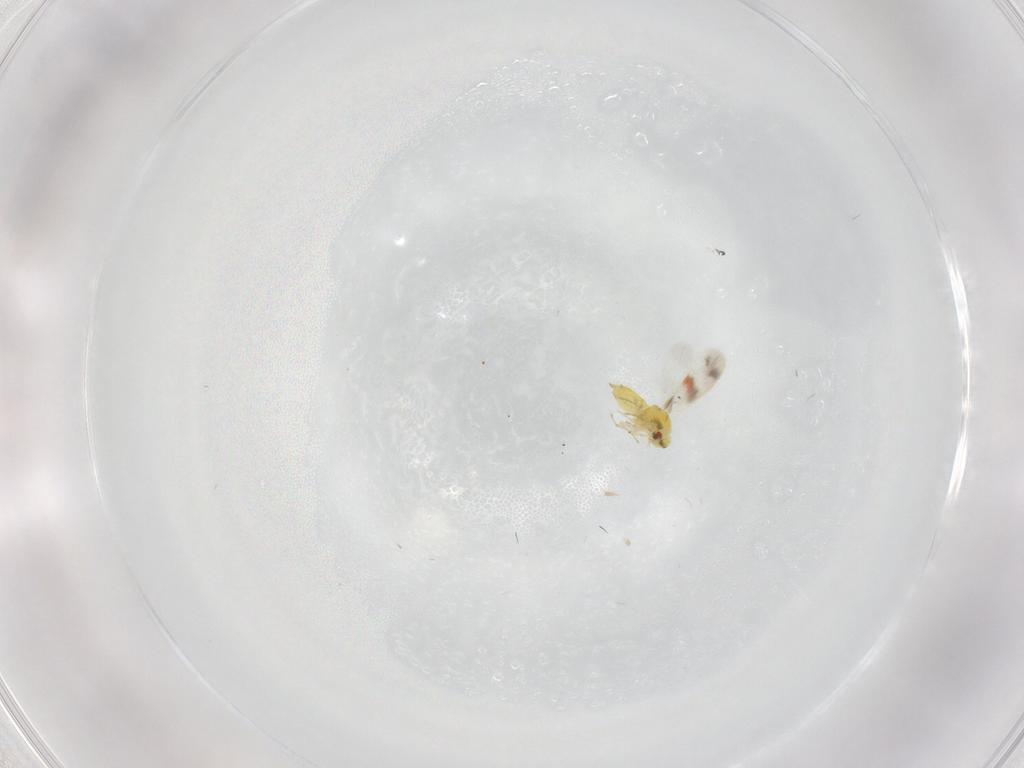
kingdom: Animalia
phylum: Arthropoda
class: Insecta
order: Hemiptera
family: Aleyrodidae
